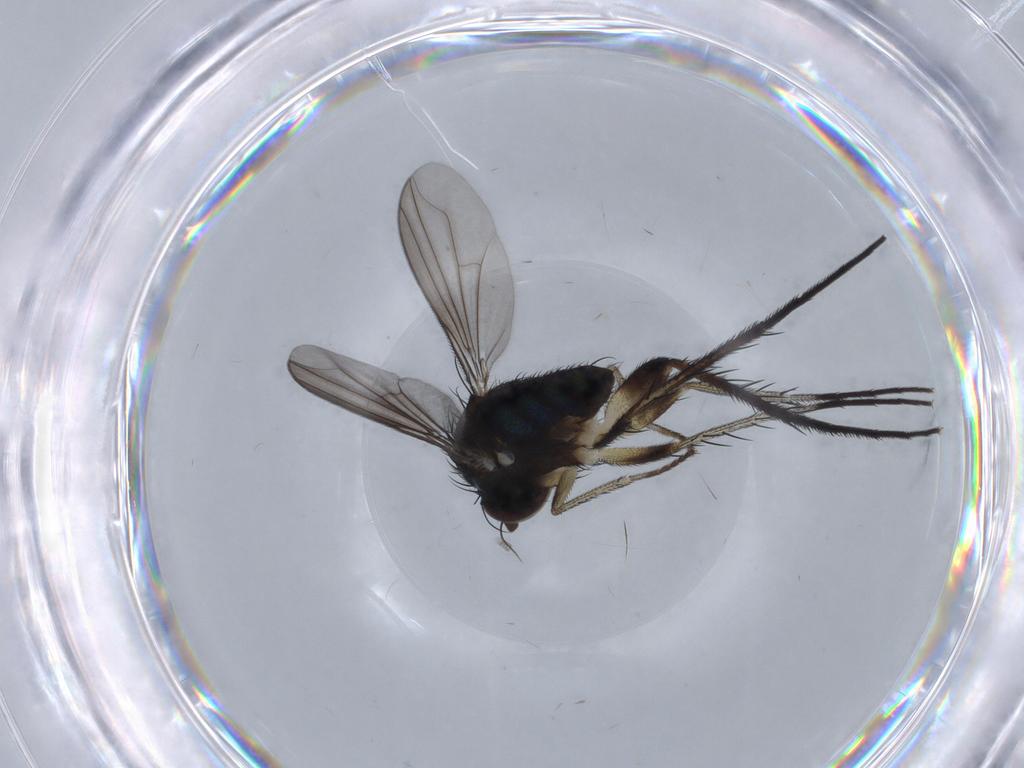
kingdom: Animalia
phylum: Arthropoda
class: Insecta
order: Diptera
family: Dolichopodidae
